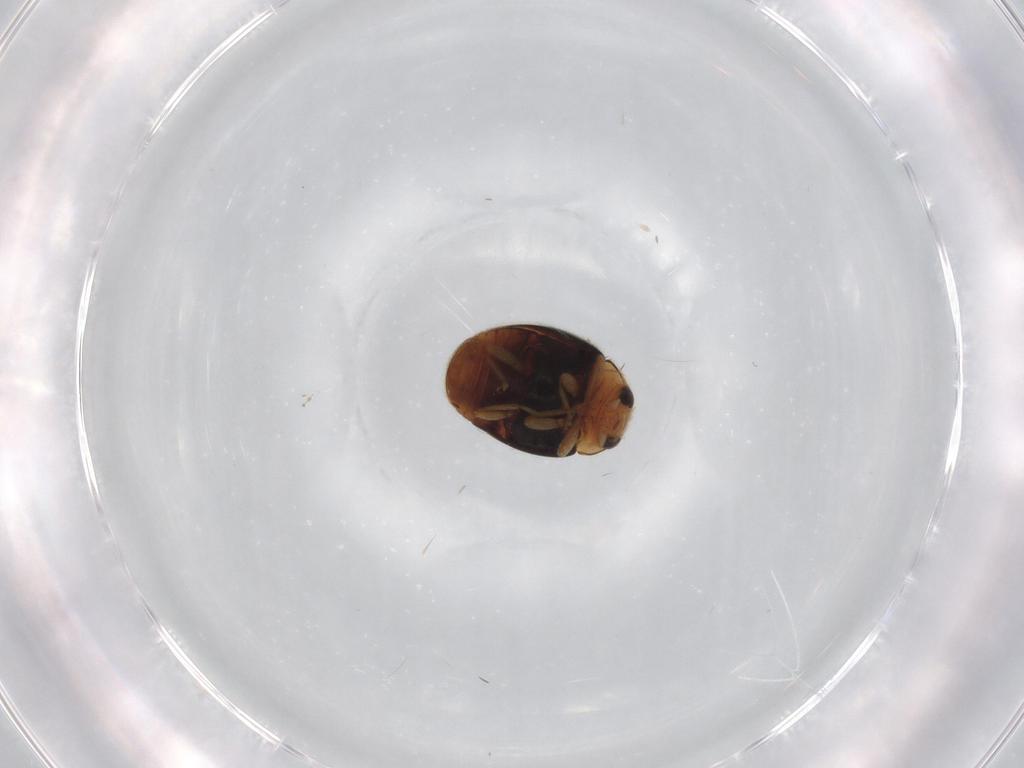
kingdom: Animalia
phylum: Arthropoda
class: Insecta
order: Coleoptera
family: Coccinellidae
